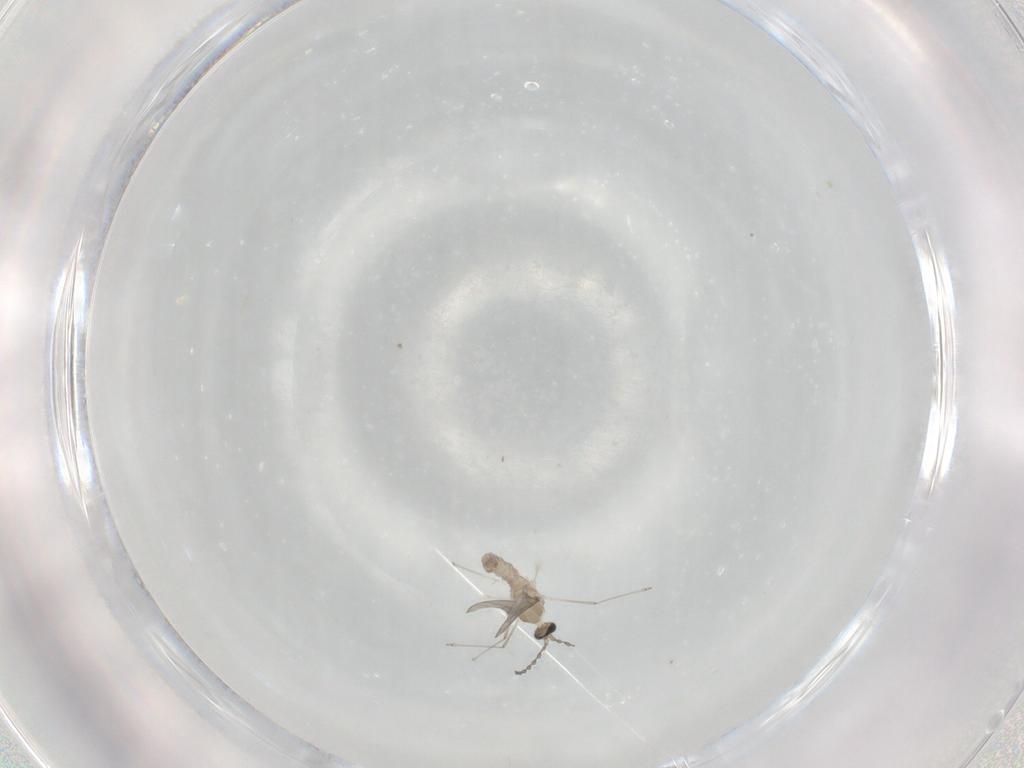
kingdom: Animalia
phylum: Arthropoda
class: Insecta
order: Diptera
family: Cecidomyiidae
